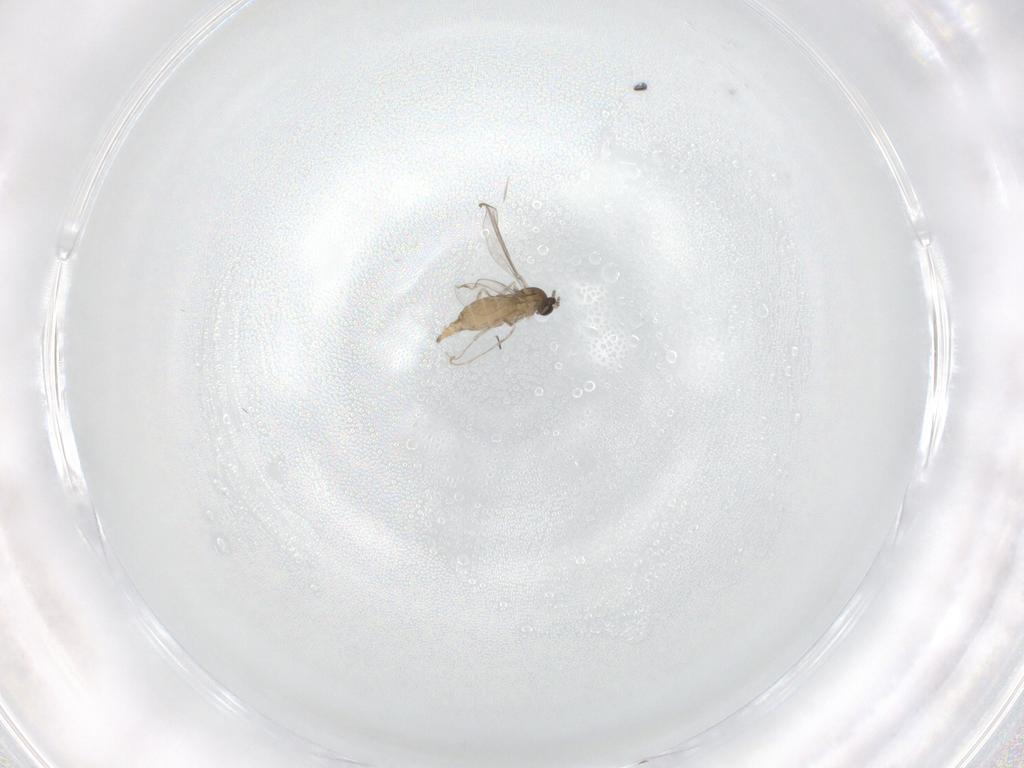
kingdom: Animalia
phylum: Arthropoda
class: Insecta
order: Diptera
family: Cecidomyiidae
